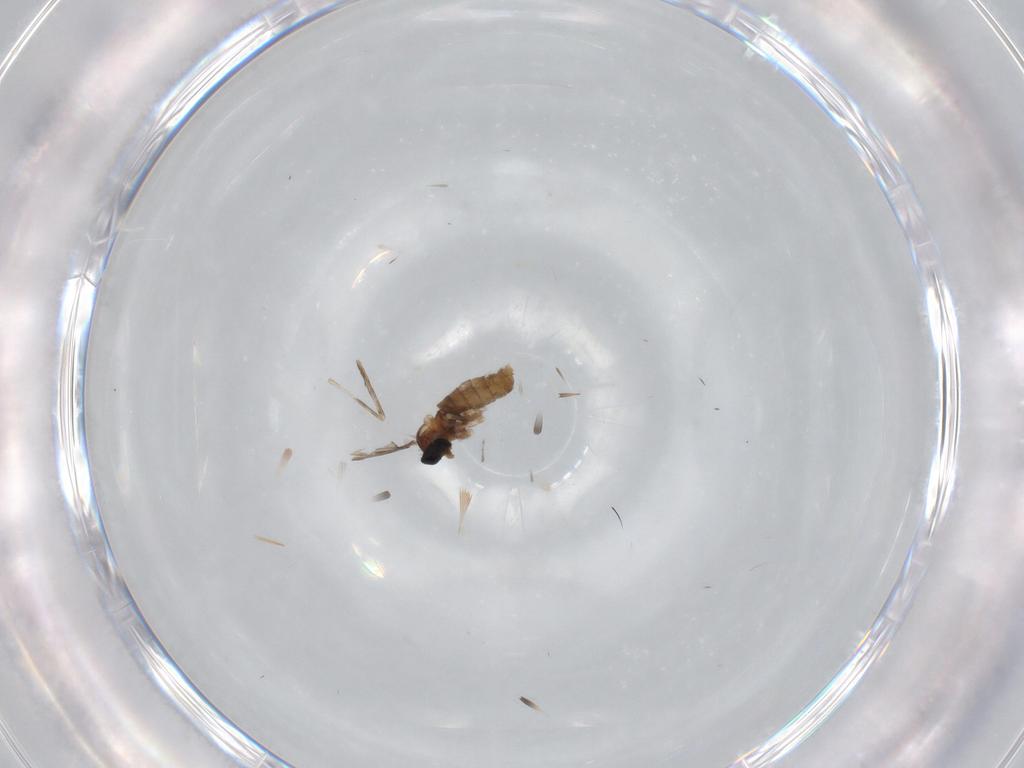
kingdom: Animalia
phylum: Arthropoda
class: Insecta
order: Diptera
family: Cecidomyiidae
